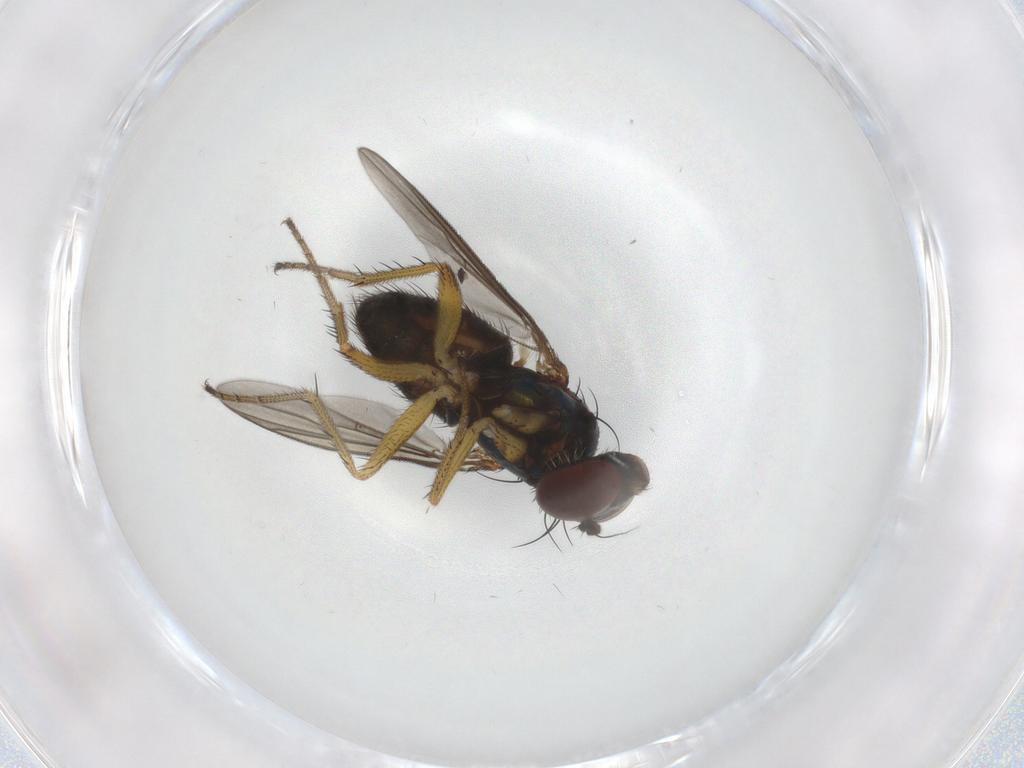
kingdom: Animalia
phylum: Arthropoda
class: Insecta
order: Diptera
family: Dolichopodidae
